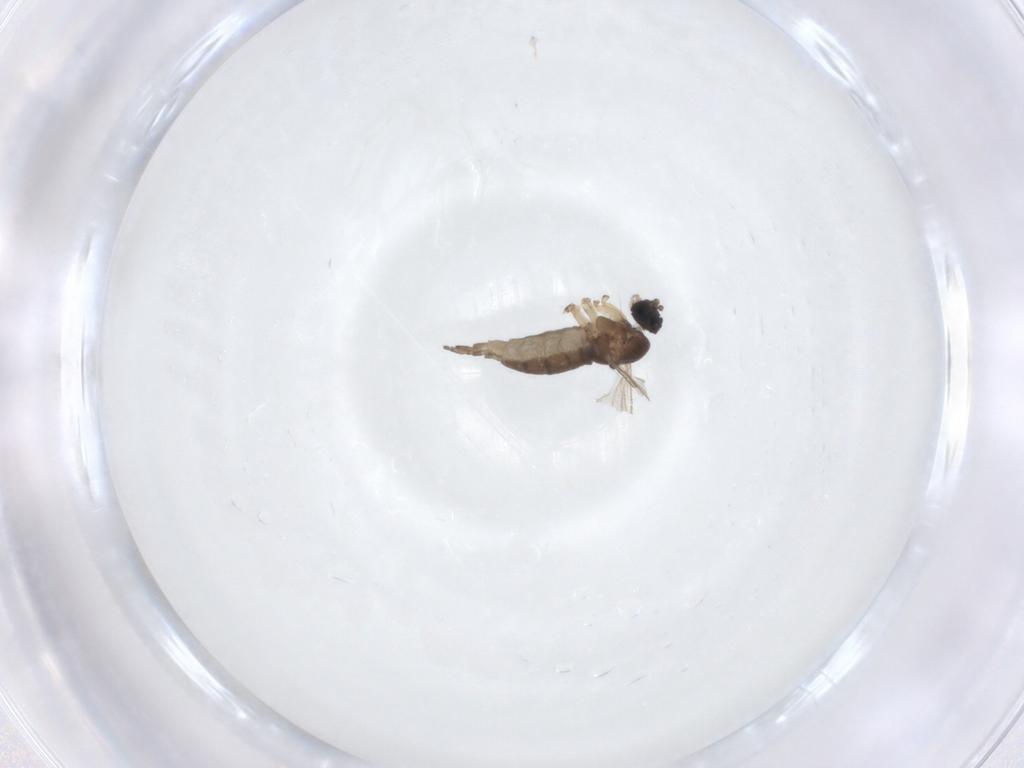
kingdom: Animalia
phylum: Arthropoda
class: Insecta
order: Diptera
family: Sciaridae
